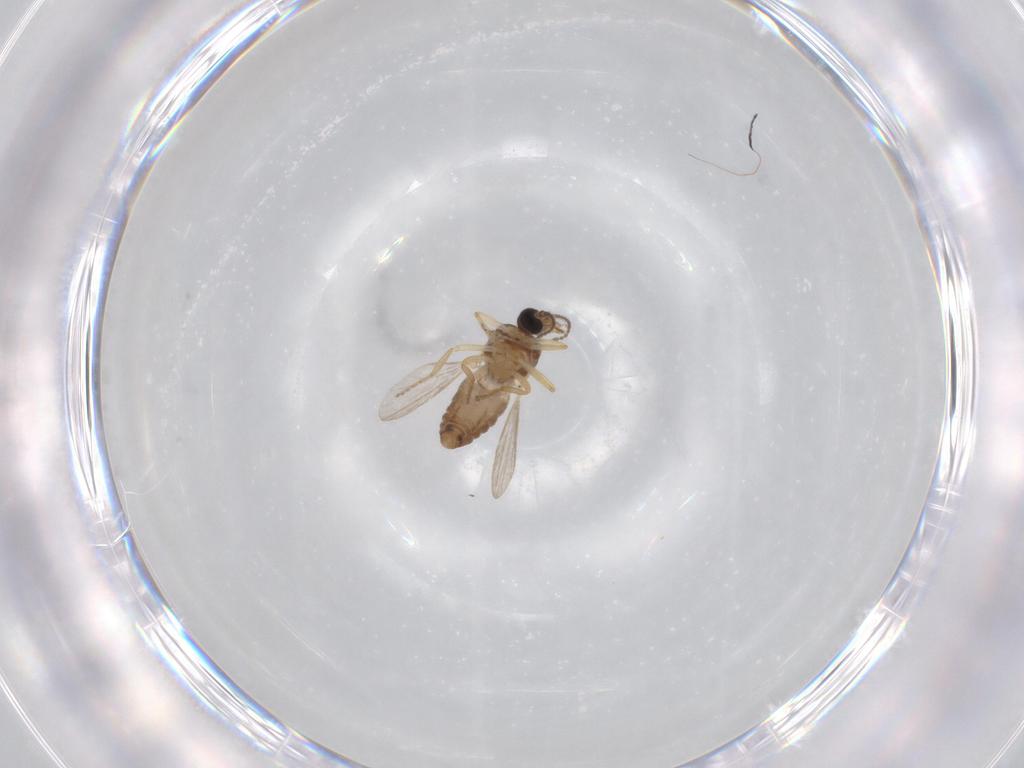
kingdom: Animalia
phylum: Arthropoda
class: Insecta
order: Diptera
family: Ceratopogonidae
